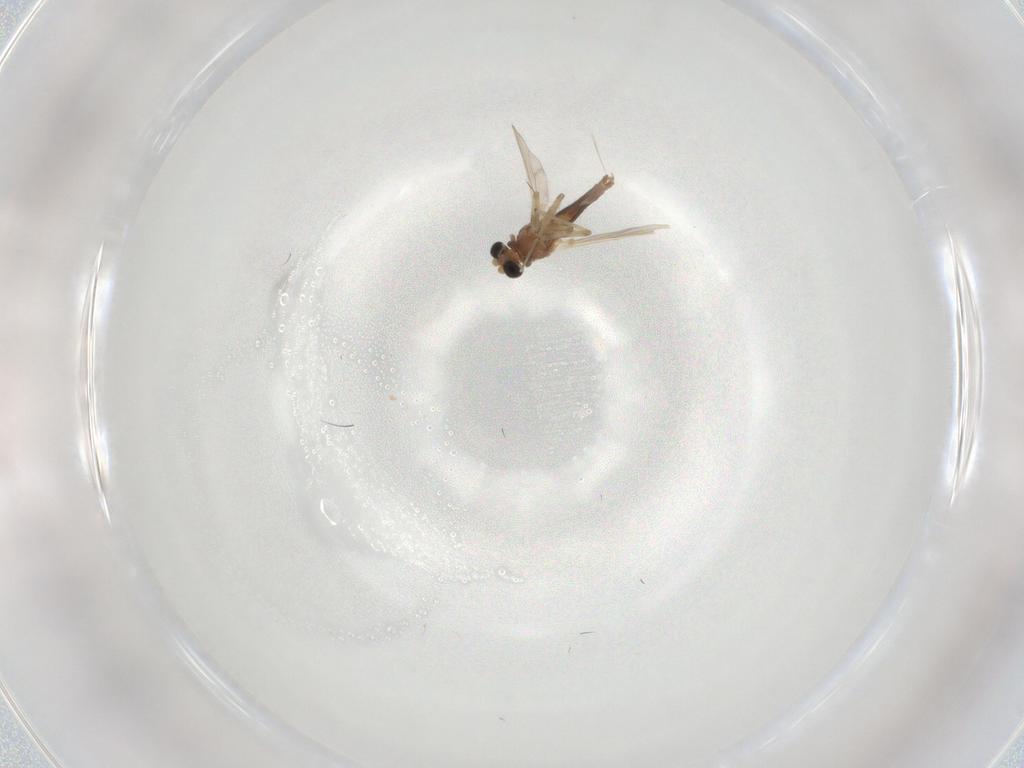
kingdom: Animalia
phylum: Arthropoda
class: Insecta
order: Diptera
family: Chironomidae
